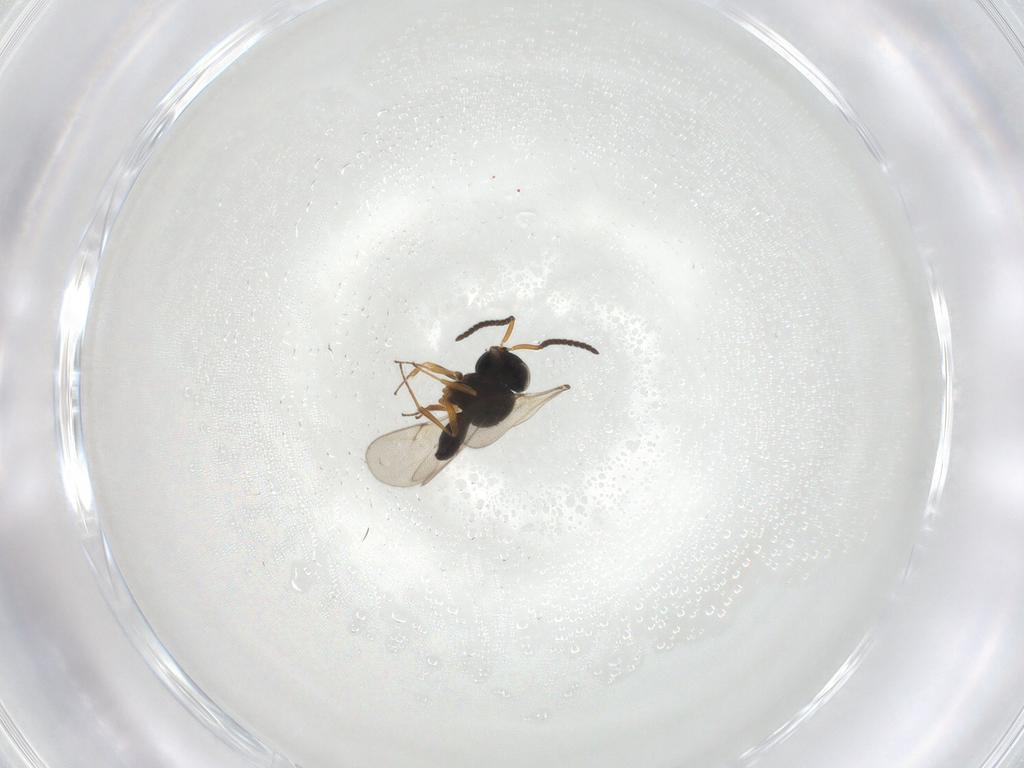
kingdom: Animalia
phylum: Arthropoda
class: Insecta
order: Hymenoptera
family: Scelionidae
